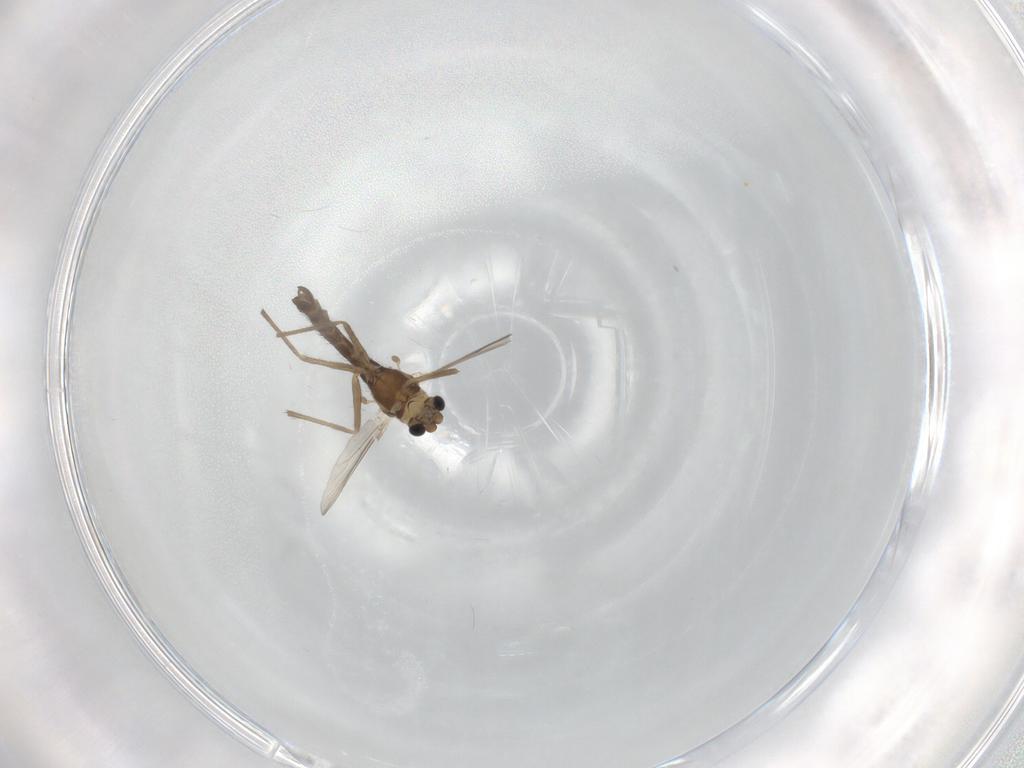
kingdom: Animalia
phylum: Arthropoda
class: Insecta
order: Diptera
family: Chironomidae
